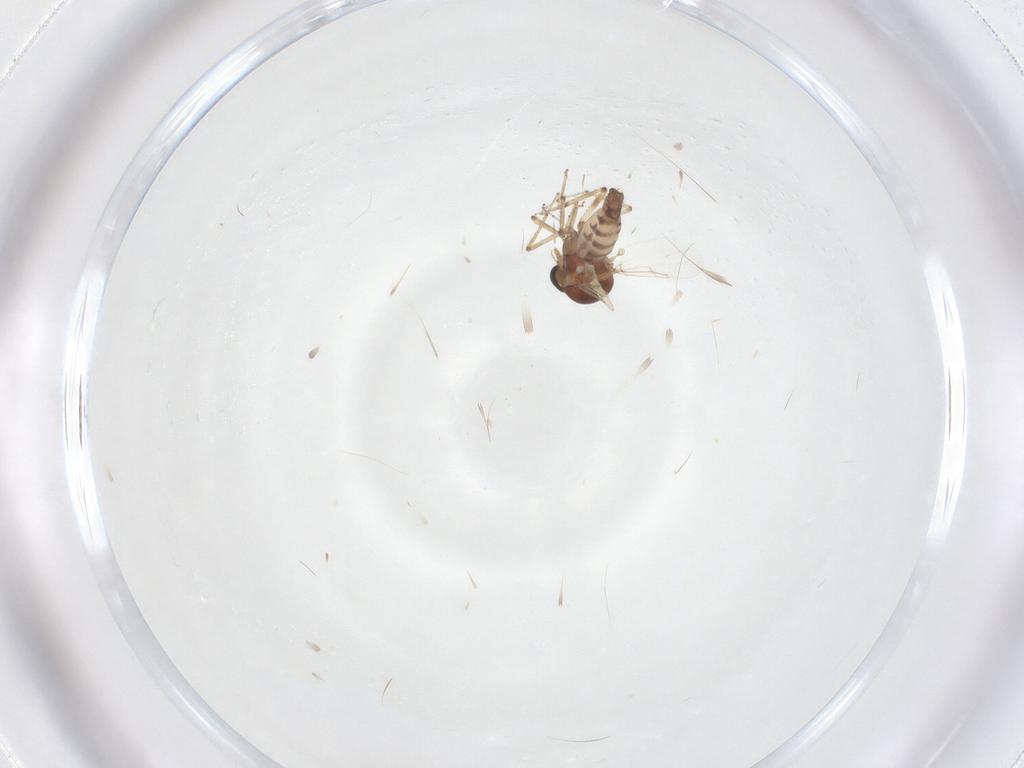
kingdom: Animalia
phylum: Arthropoda
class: Insecta
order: Diptera
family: Ceratopogonidae
